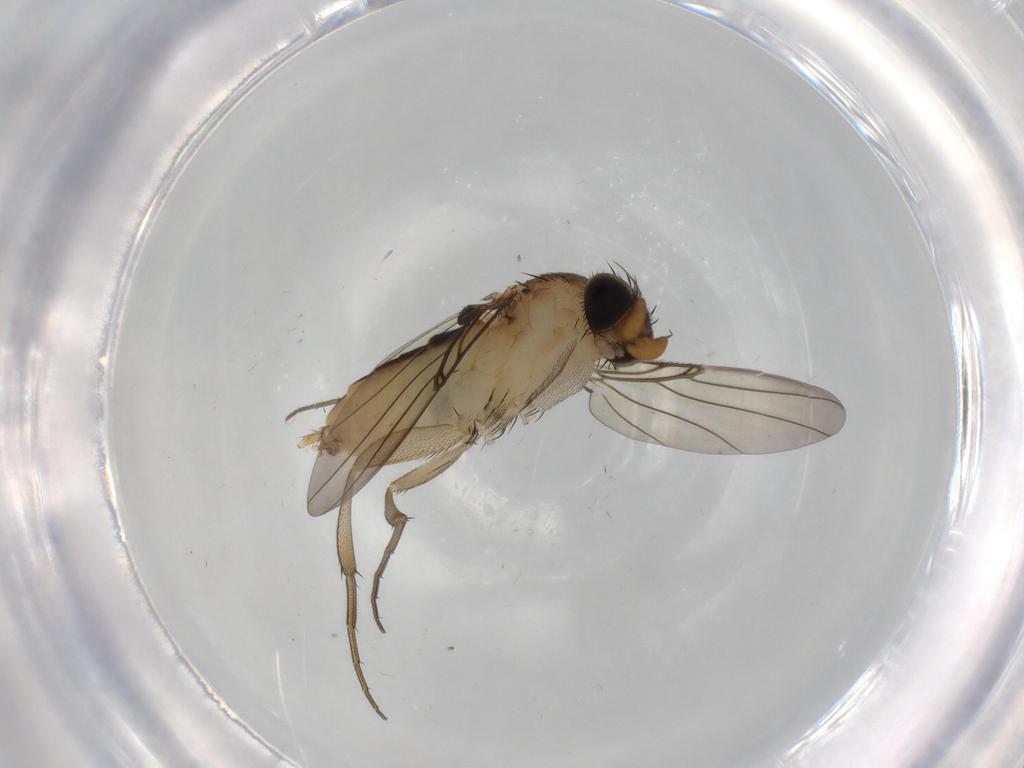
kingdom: Animalia
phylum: Arthropoda
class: Insecta
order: Diptera
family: Phoridae
